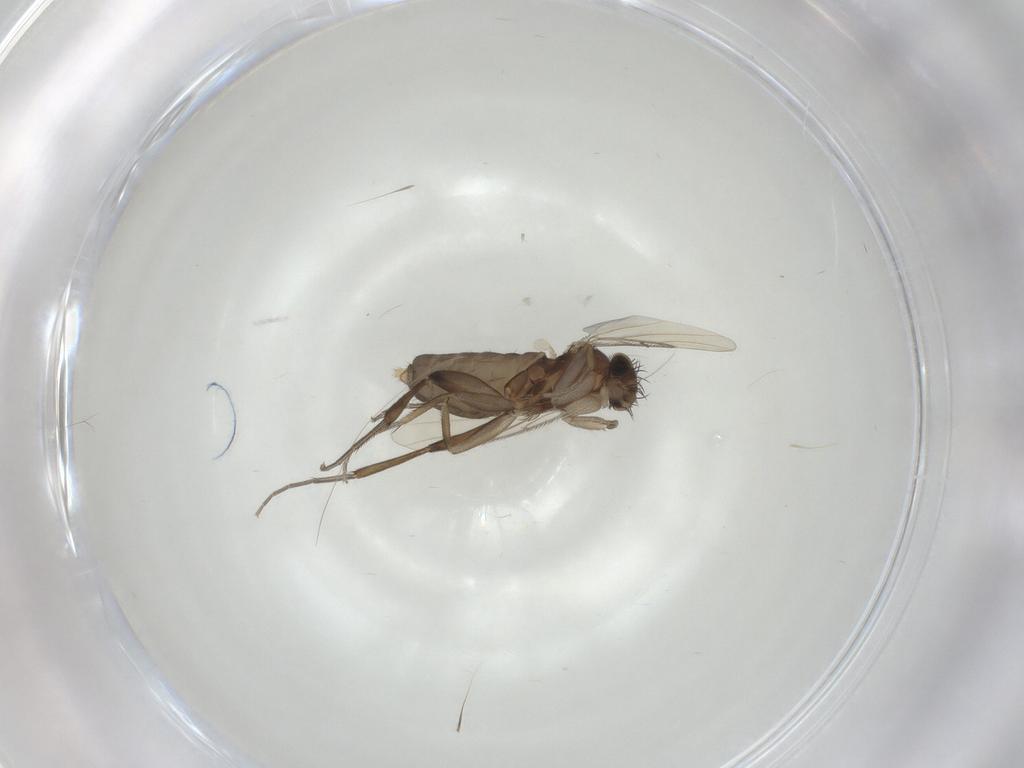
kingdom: Animalia
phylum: Arthropoda
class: Insecta
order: Diptera
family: Phoridae
